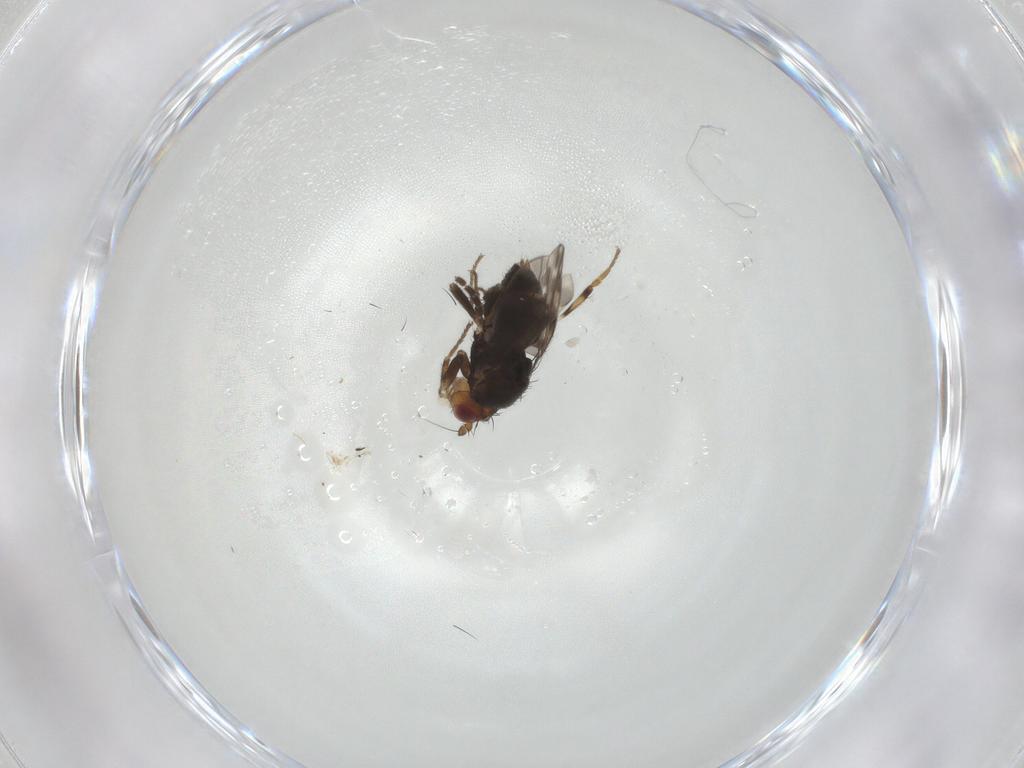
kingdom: Animalia
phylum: Arthropoda
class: Insecta
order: Diptera
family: Sphaeroceridae
